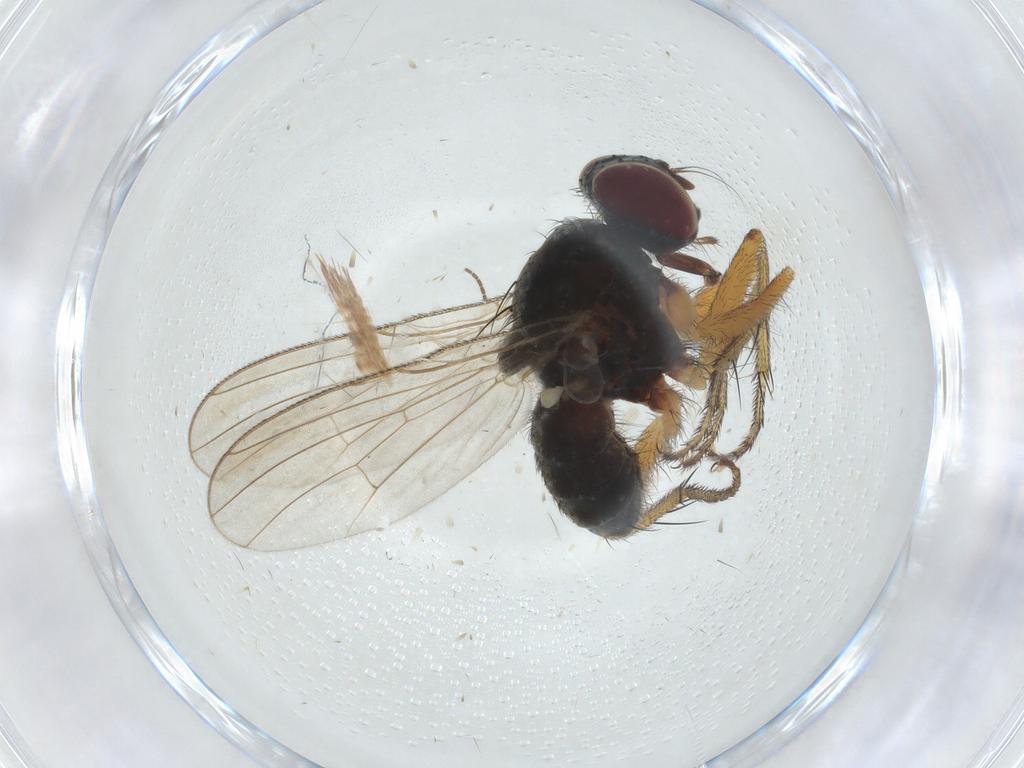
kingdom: Animalia
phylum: Arthropoda
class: Insecta
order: Diptera
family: Muscidae
